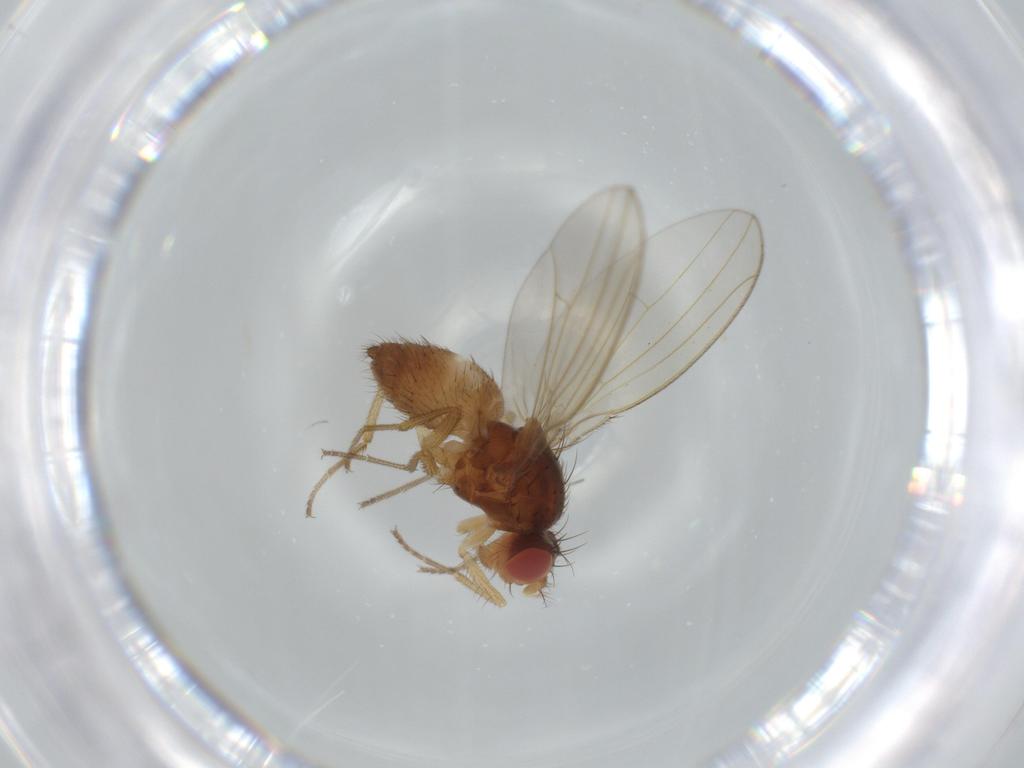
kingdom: Animalia
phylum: Arthropoda
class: Insecta
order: Diptera
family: Drosophilidae
